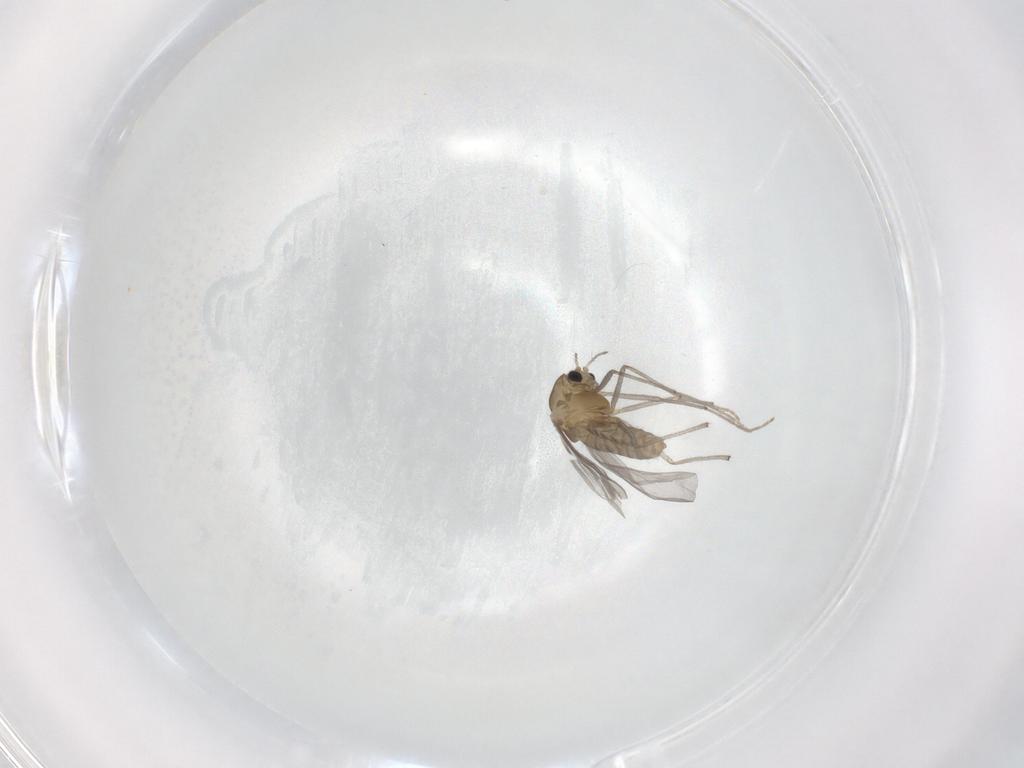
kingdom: Animalia
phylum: Arthropoda
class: Insecta
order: Diptera
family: Chironomidae
